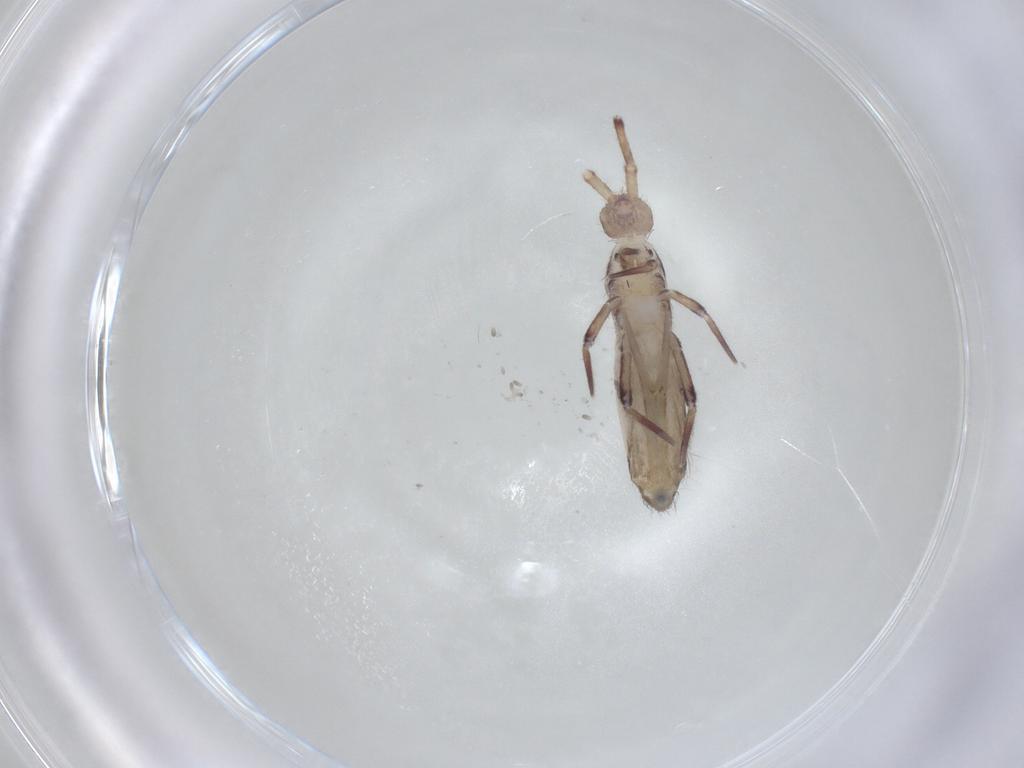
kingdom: Animalia
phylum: Arthropoda
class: Collembola
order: Entomobryomorpha
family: Entomobryidae
